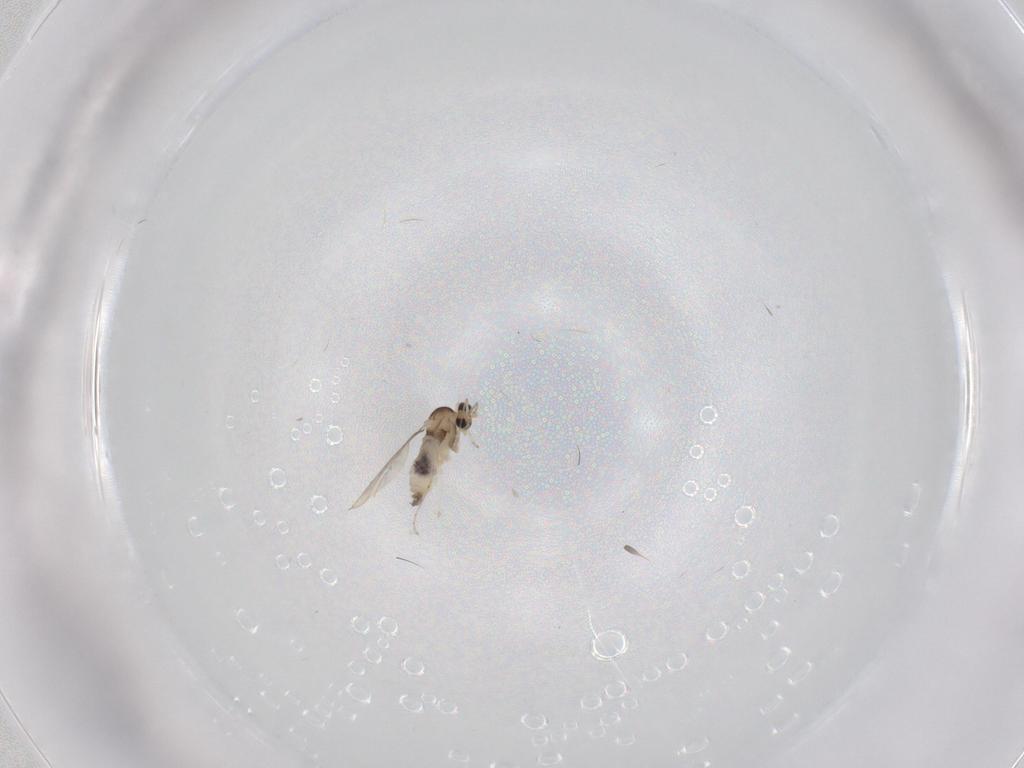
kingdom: Animalia
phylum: Arthropoda
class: Insecta
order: Diptera
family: Cecidomyiidae
